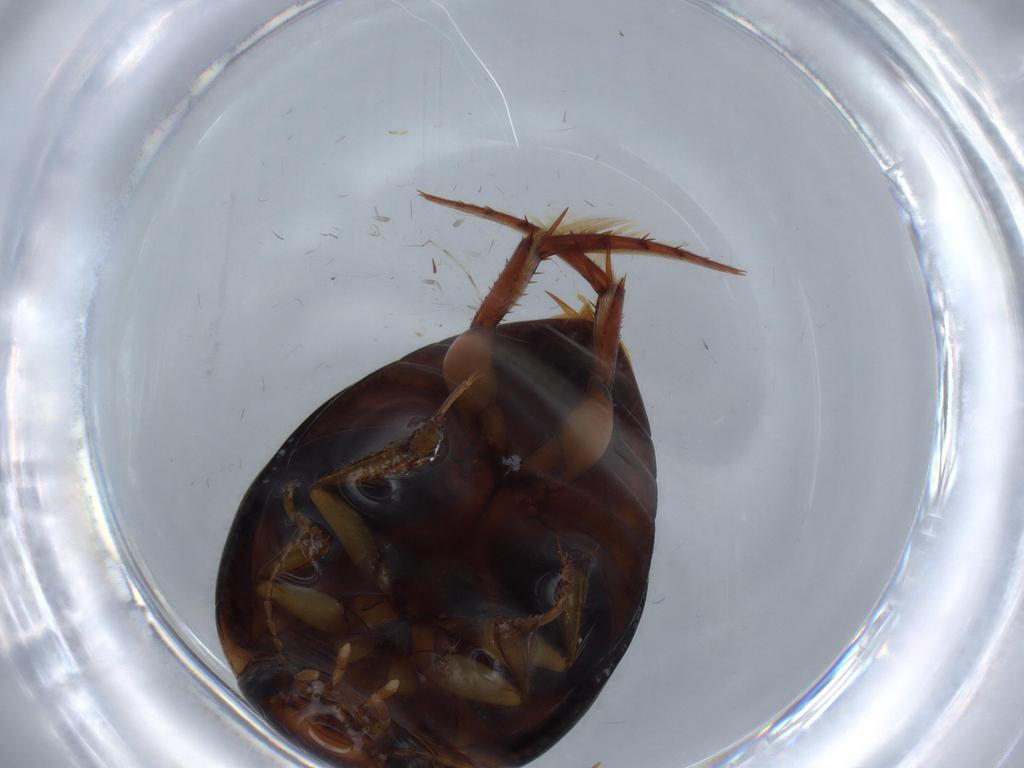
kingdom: Animalia
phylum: Arthropoda
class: Insecta
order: Coleoptera
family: Dytiscidae
